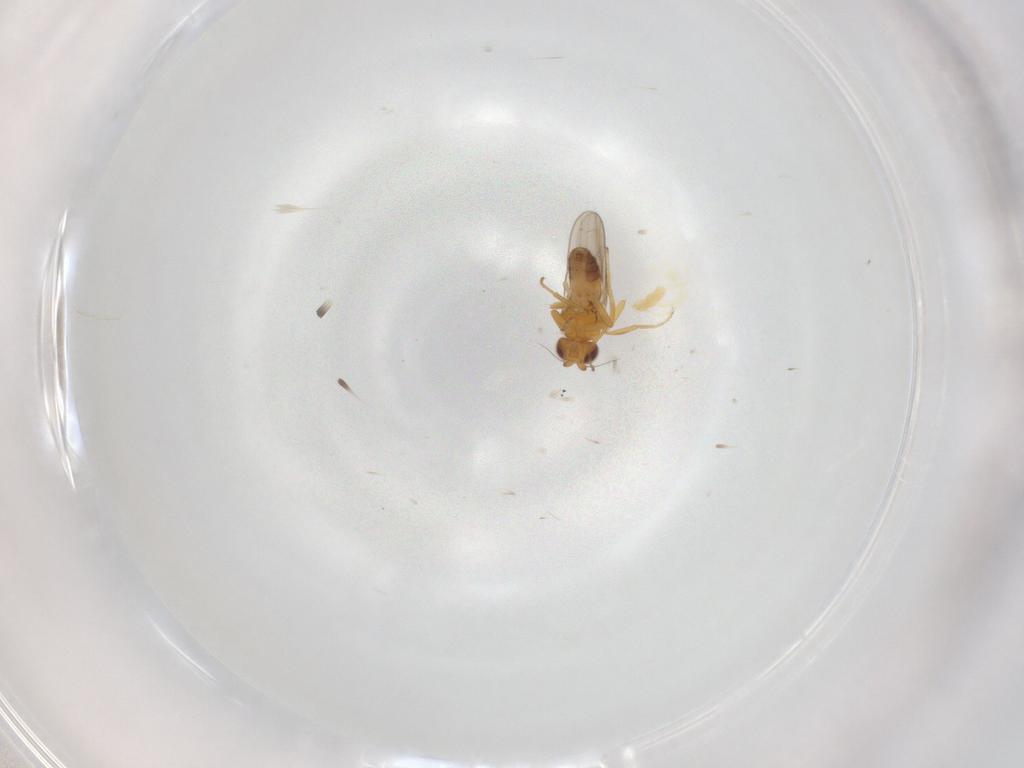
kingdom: Animalia
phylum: Arthropoda
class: Insecta
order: Diptera
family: Chloropidae
